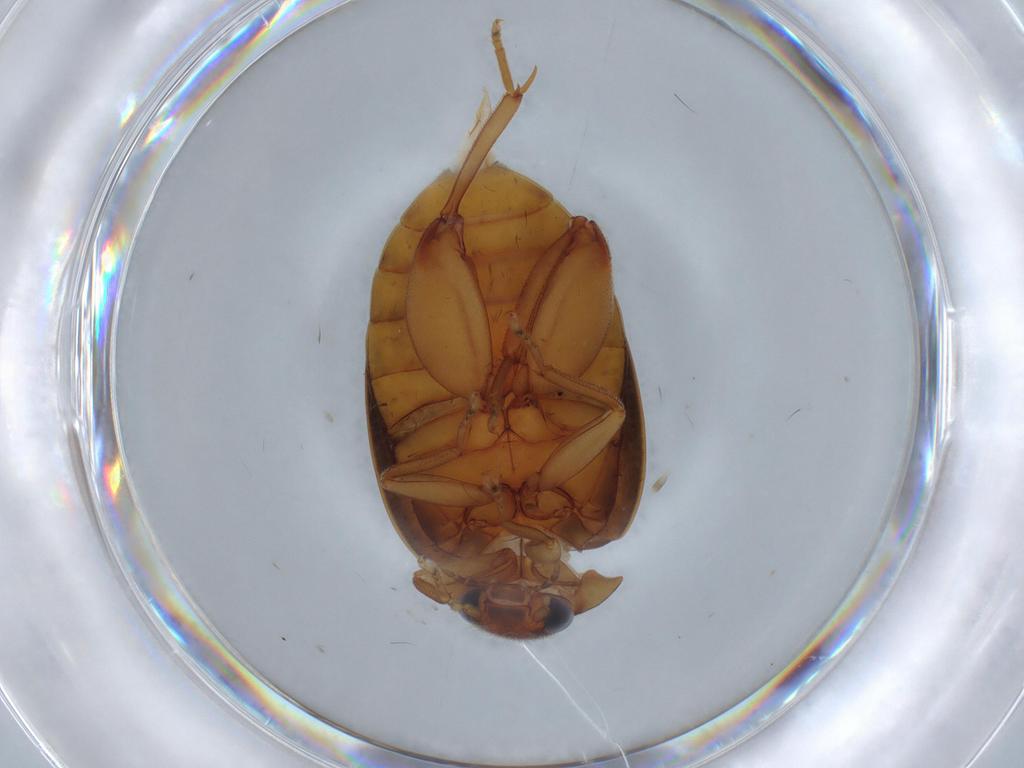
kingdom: Animalia
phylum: Arthropoda
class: Insecta
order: Coleoptera
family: Scirtidae
